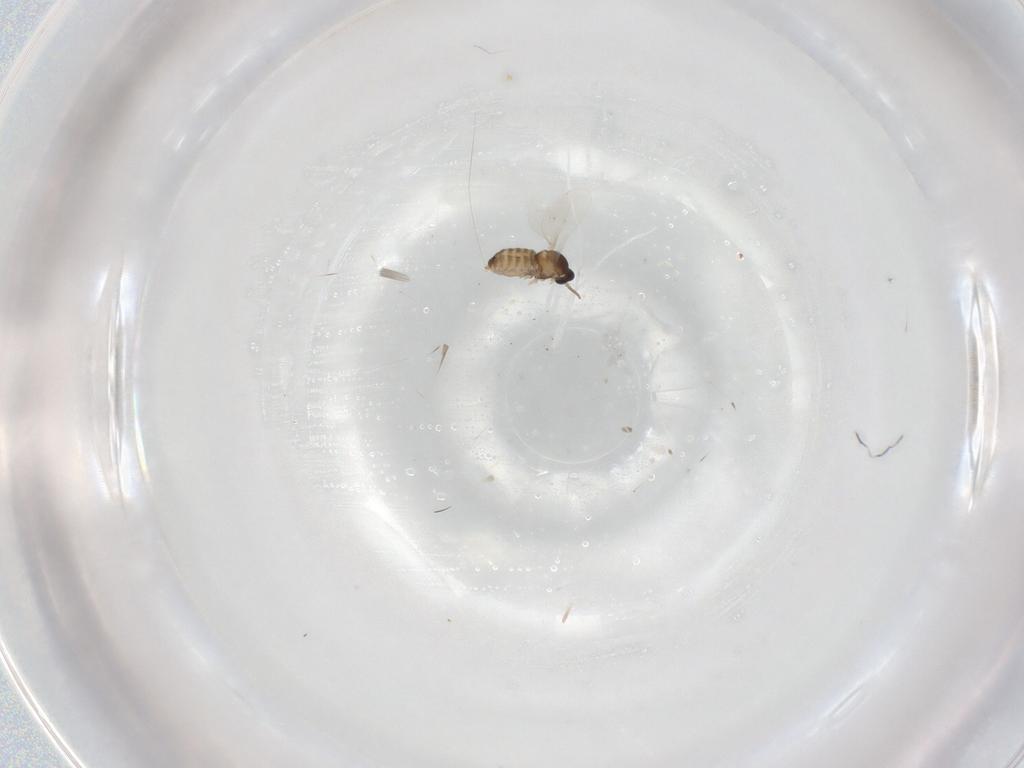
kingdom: Animalia
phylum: Arthropoda
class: Insecta
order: Diptera
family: Cecidomyiidae
